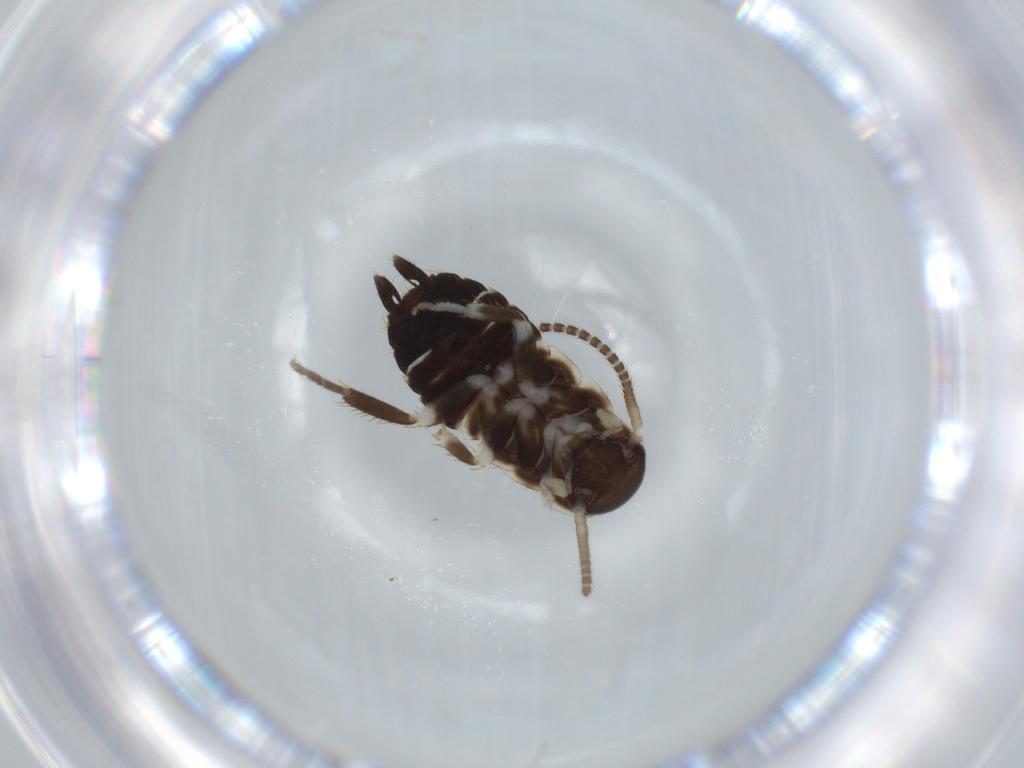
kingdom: Animalia
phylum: Arthropoda
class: Insecta
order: Blattodea
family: Ectobiidae
